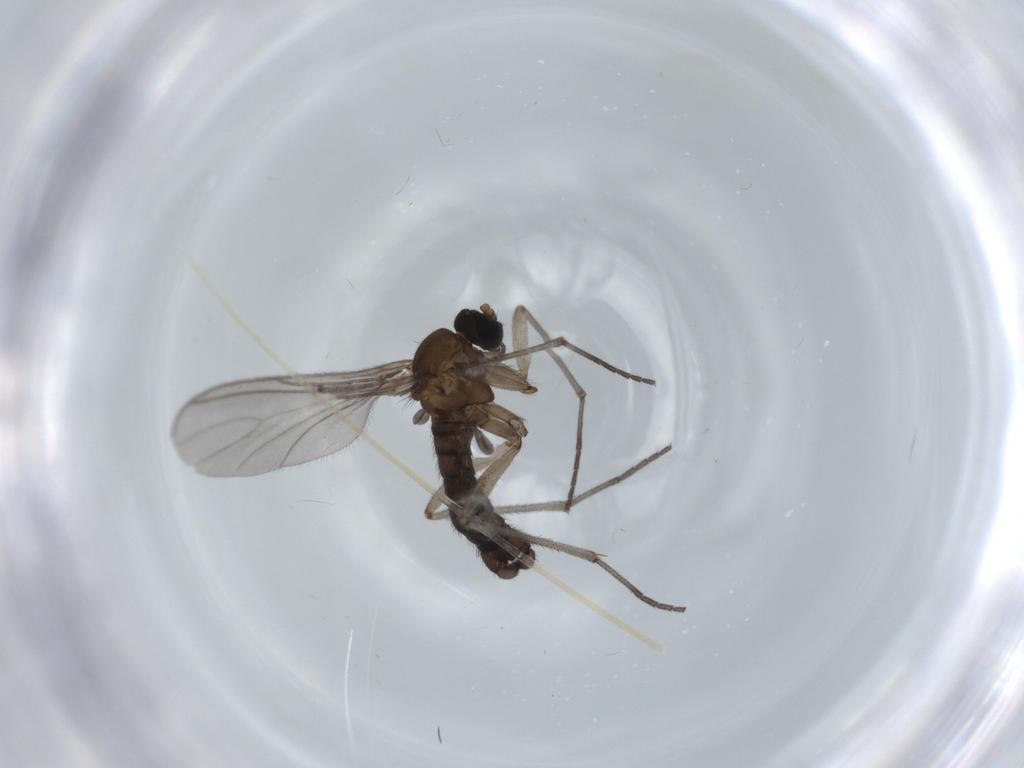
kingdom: Animalia
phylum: Arthropoda
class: Insecta
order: Diptera
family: Sciaridae
